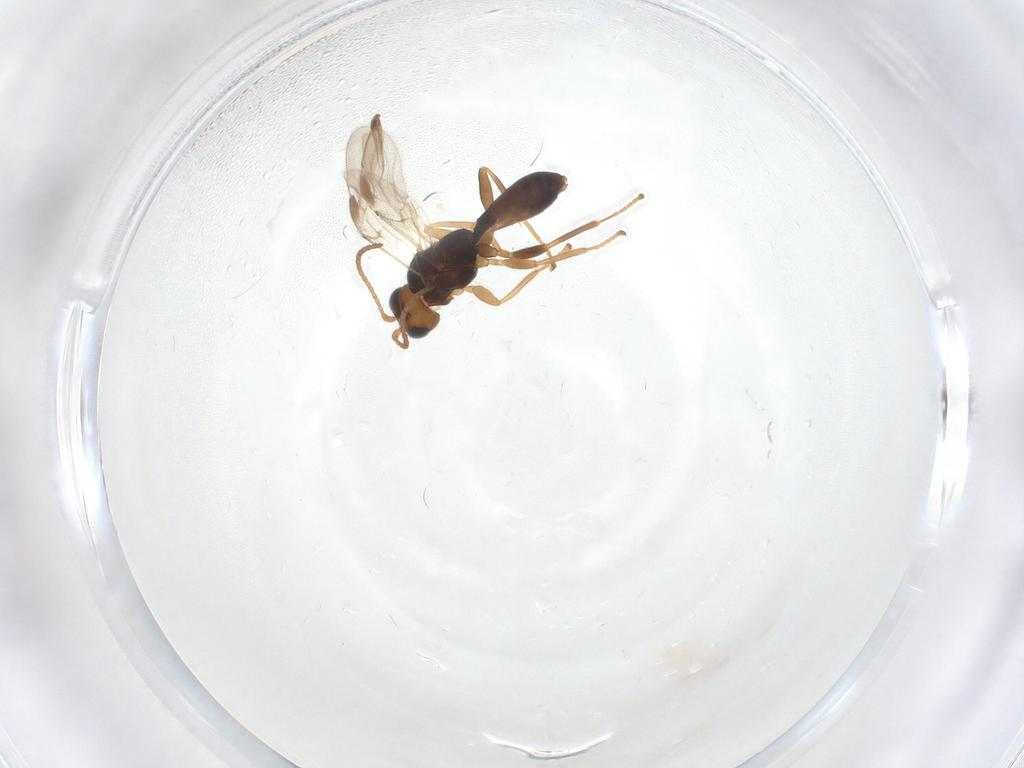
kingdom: Animalia
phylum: Arthropoda
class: Insecta
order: Hymenoptera
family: Braconidae
